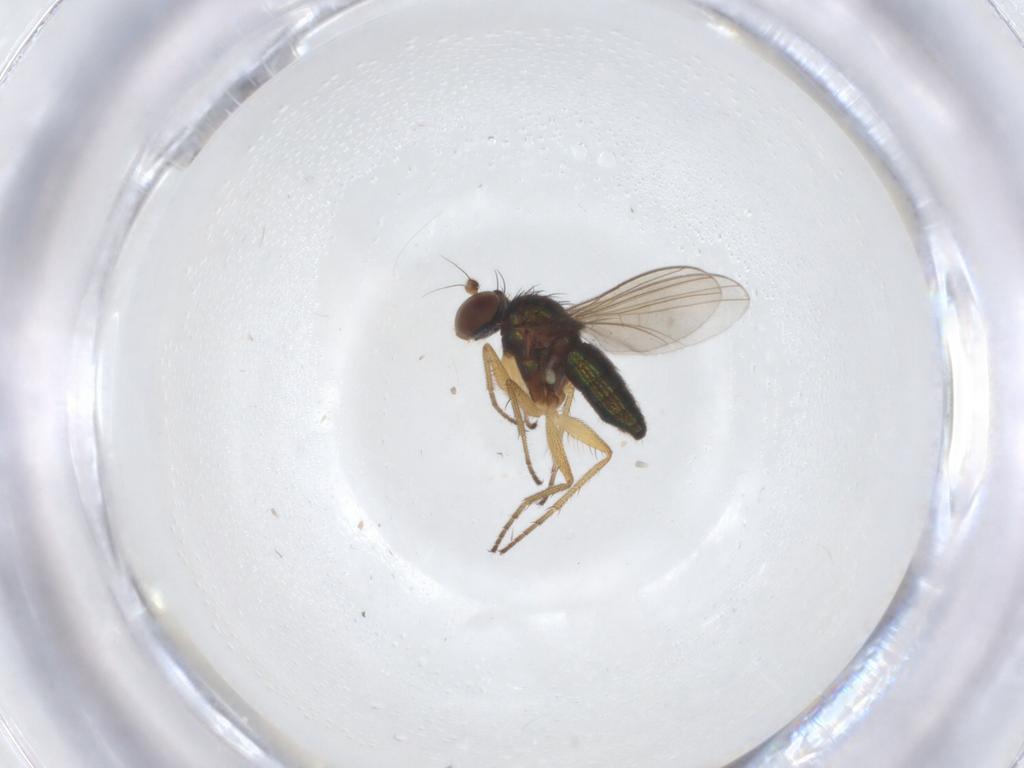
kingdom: Animalia
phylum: Arthropoda
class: Insecta
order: Diptera
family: Dolichopodidae
